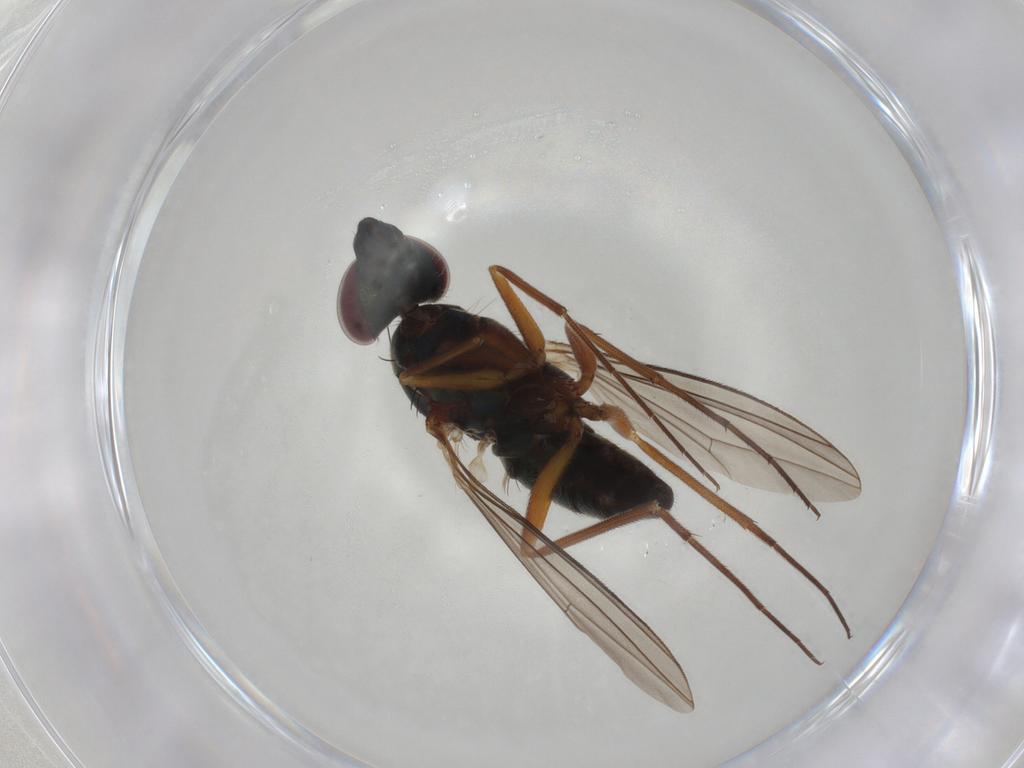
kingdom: Animalia
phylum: Arthropoda
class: Insecta
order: Diptera
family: Dolichopodidae
